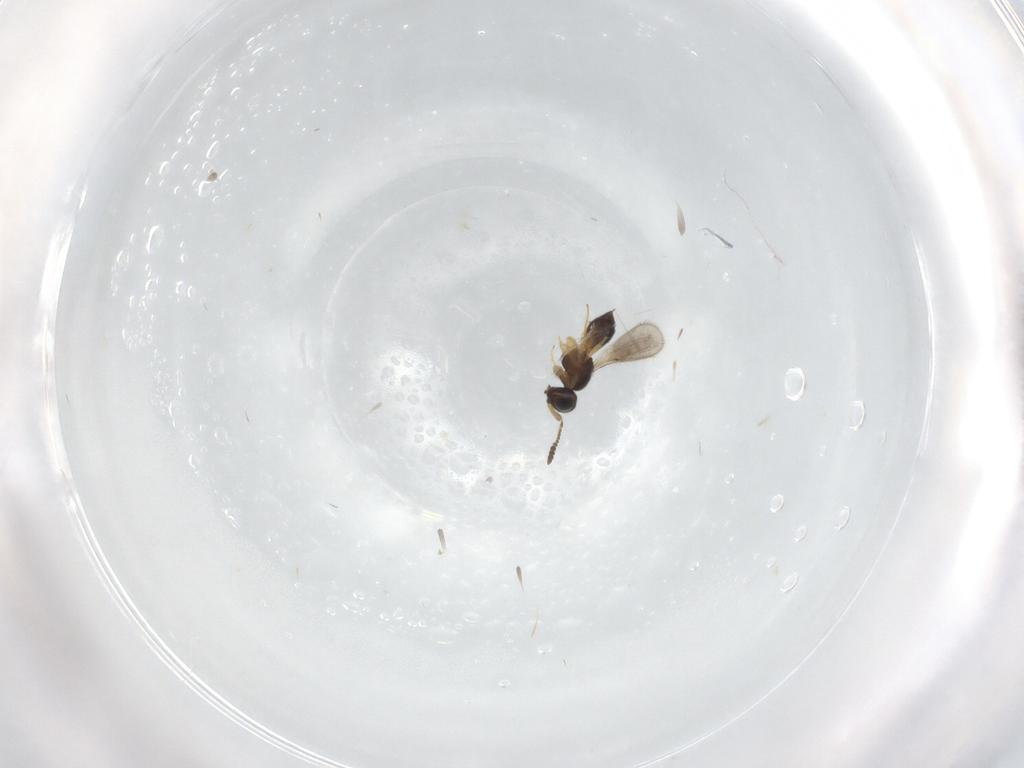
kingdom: Animalia
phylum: Arthropoda
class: Insecta
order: Hymenoptera
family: Scelionidae
